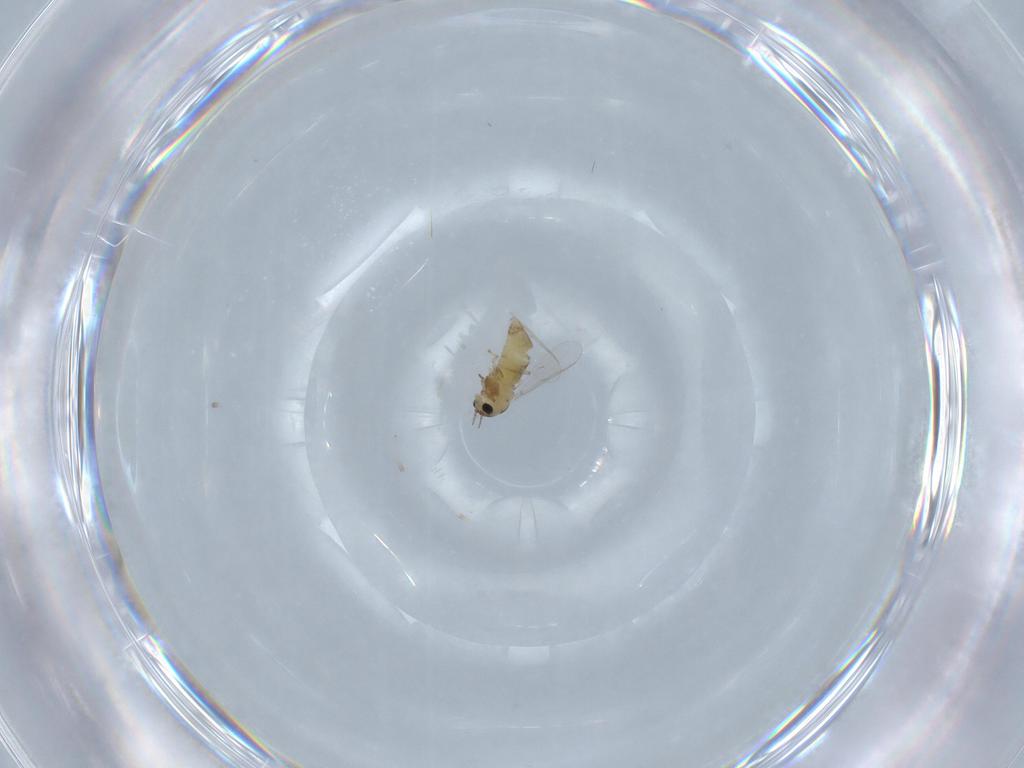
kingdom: Animalia
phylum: Arthropoda
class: Insecta
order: Diptera
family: Chironomidae
